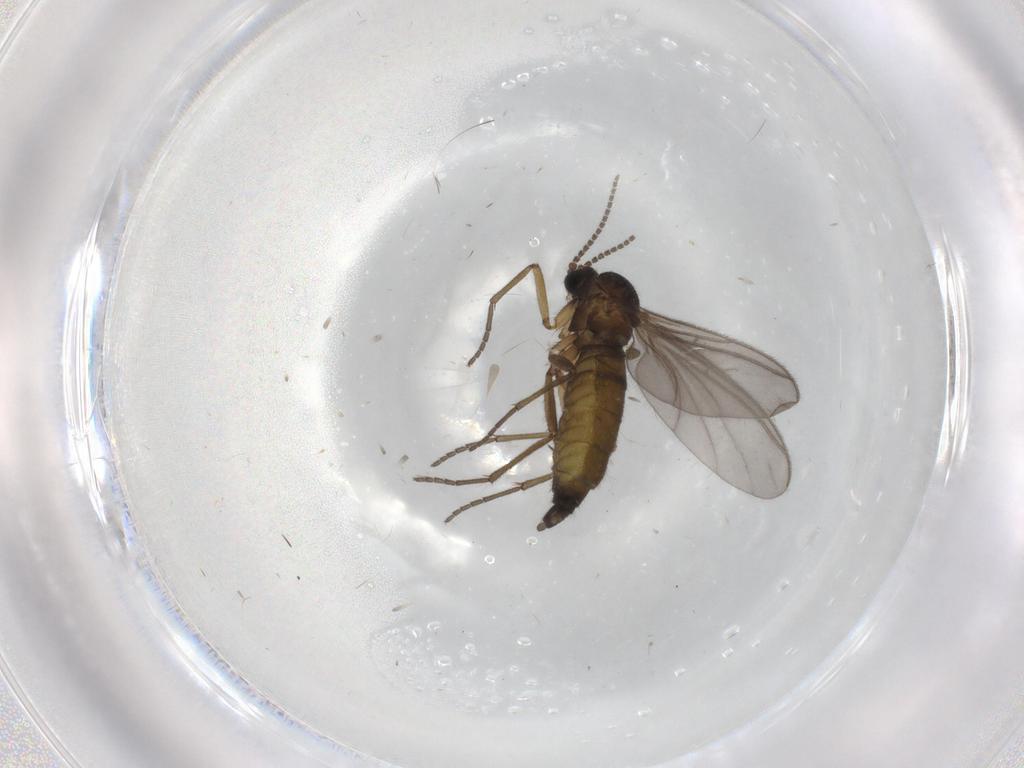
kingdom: Animalia
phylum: Arthropoda
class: Insecta
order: Diptera
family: Sciaridae
